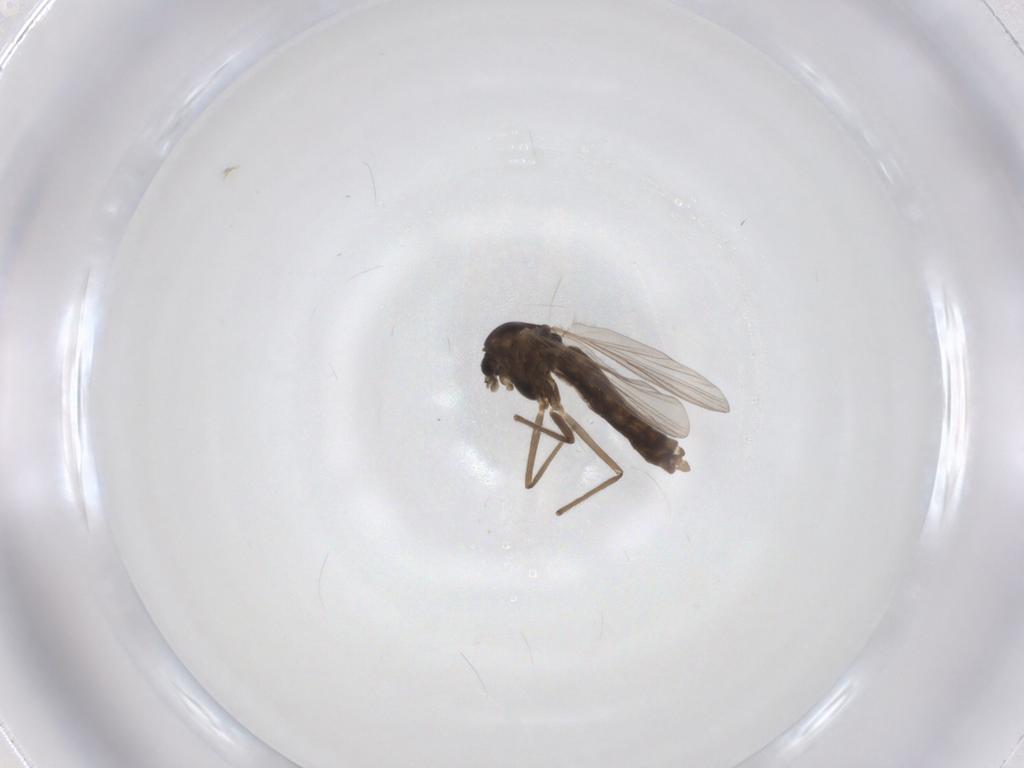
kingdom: Animalia
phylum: Arthropoda
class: Insecta
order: Diptera
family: Chironomidae
